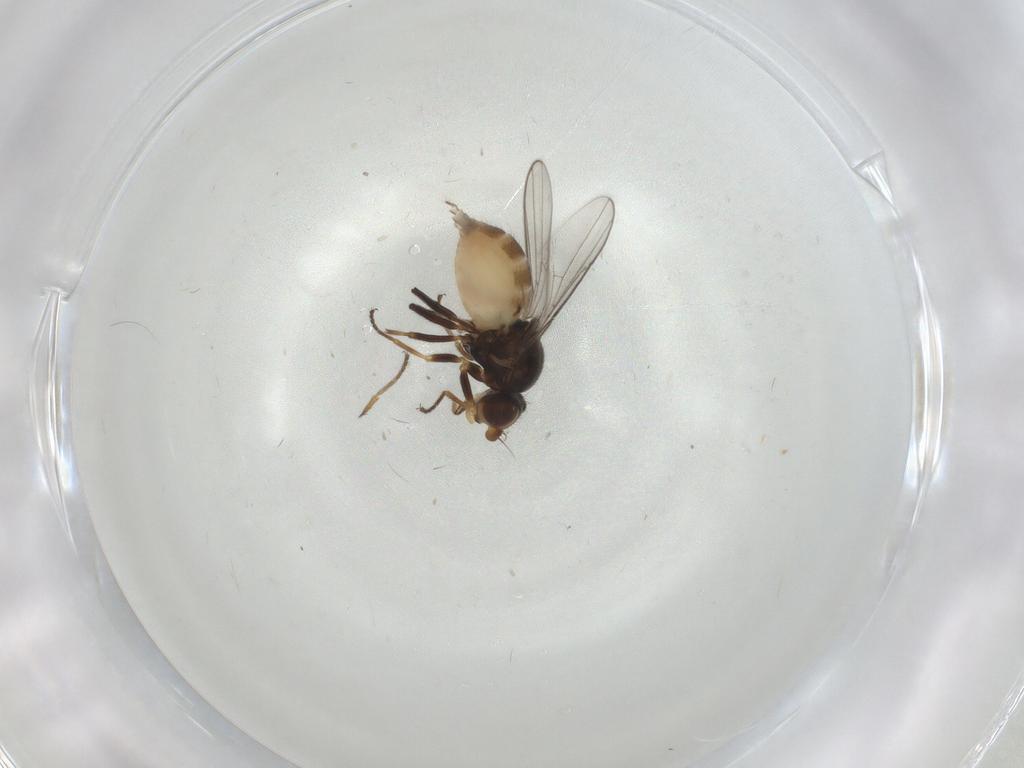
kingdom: Animalia
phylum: Arthropoda
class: Insecta
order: Diptera
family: Chloropidae
